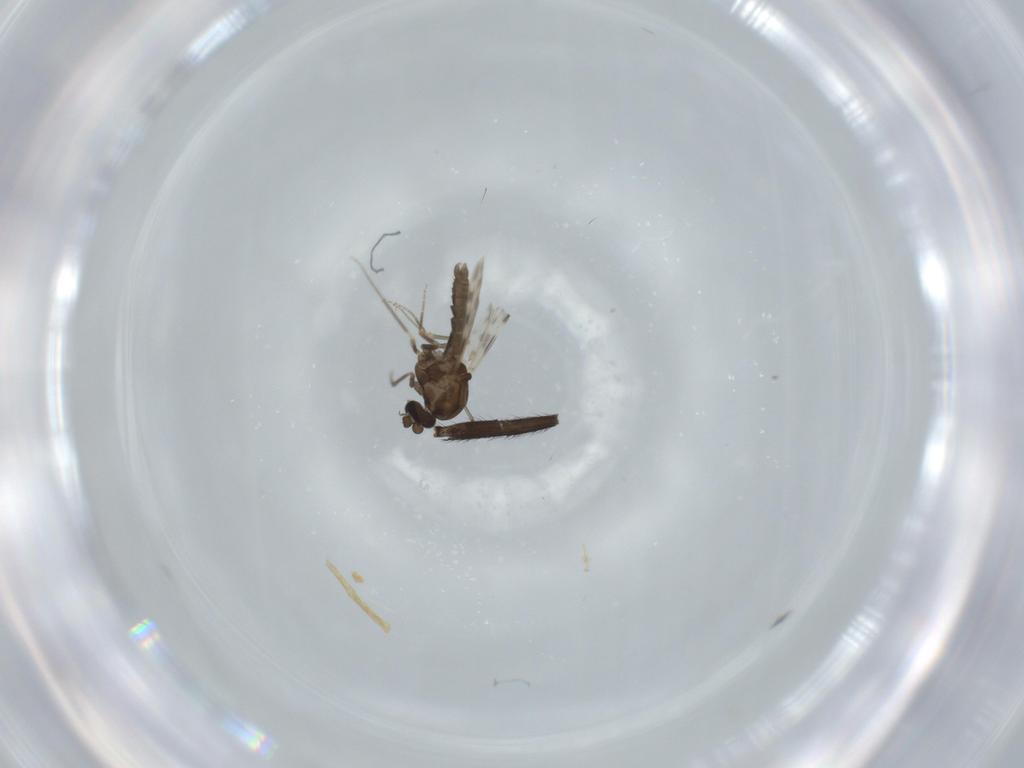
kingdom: Animalia
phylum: Arthropoda
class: Insecta
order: Diptera
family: Ceratopogonidae
